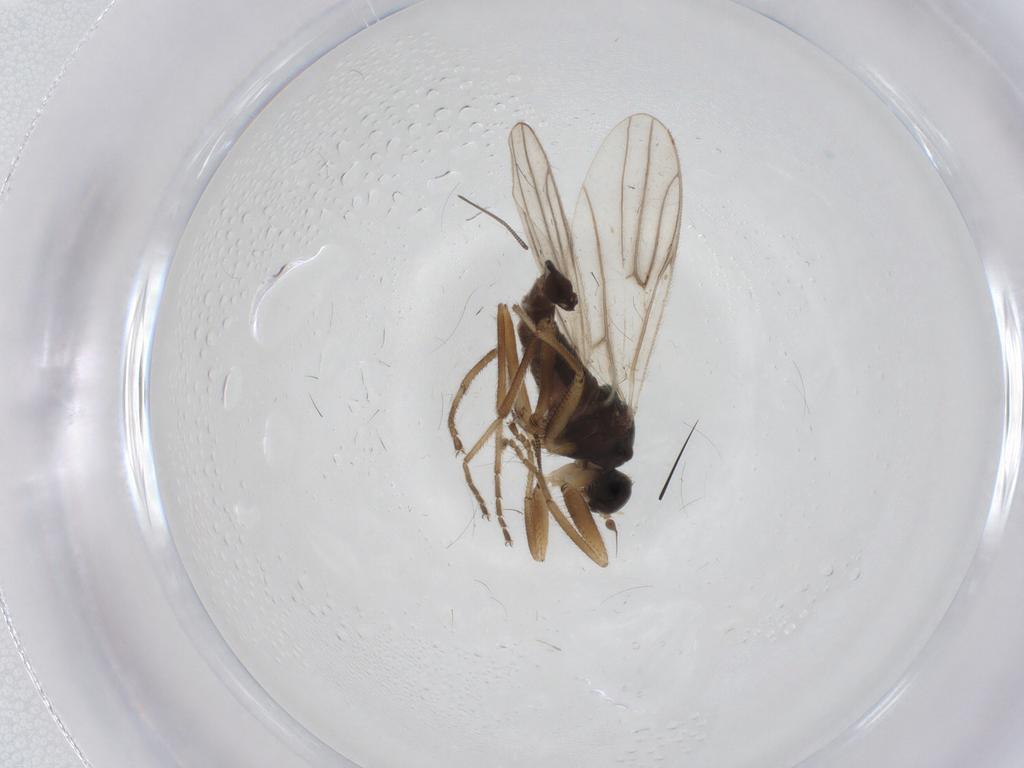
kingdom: Animalia
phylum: Arthropoda
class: Insecta
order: Diptera
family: Hybotidae
